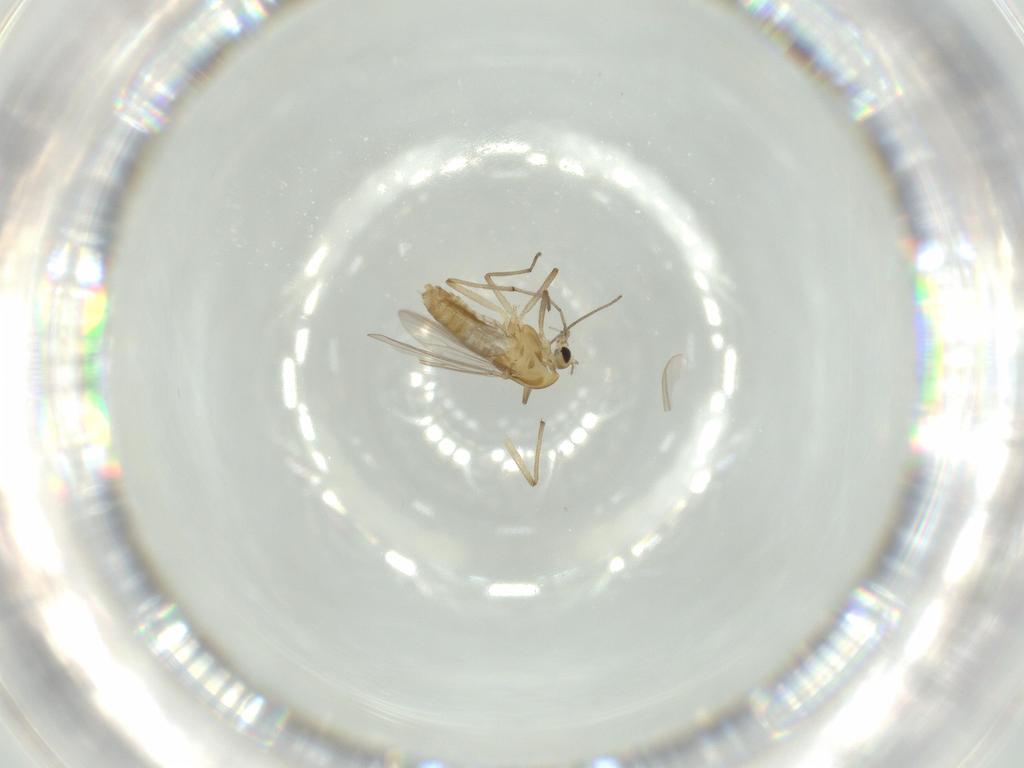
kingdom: Animalia
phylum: Arthropoda
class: Insecta
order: Diptera
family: Chironomidae
